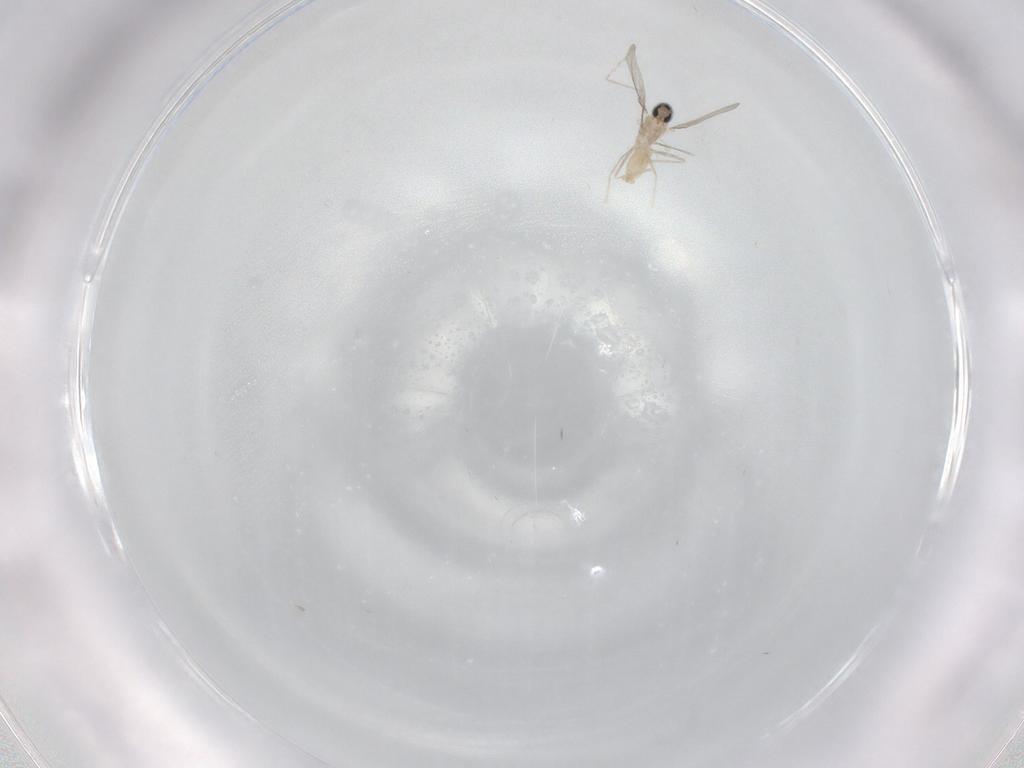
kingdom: Animalia
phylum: Arthropoda
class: Insecta
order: Diptera
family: Cecidomyiidae
